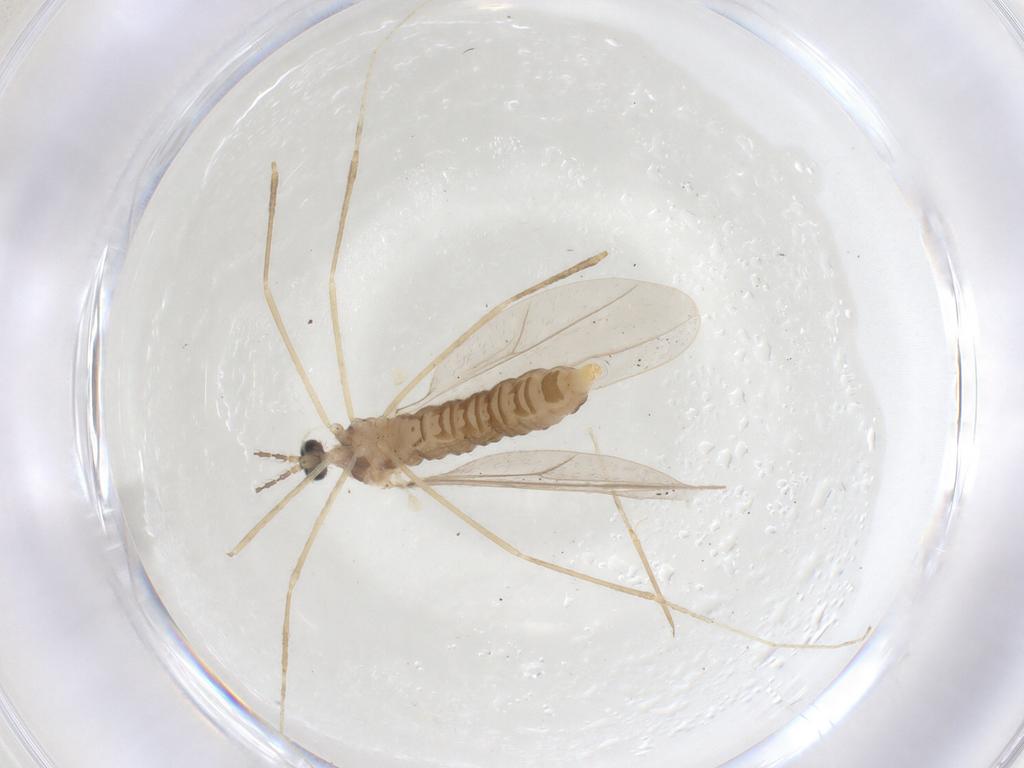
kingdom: Animalia
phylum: Arthropoda
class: Insecta
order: Diptera
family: Cecidomyiidae
